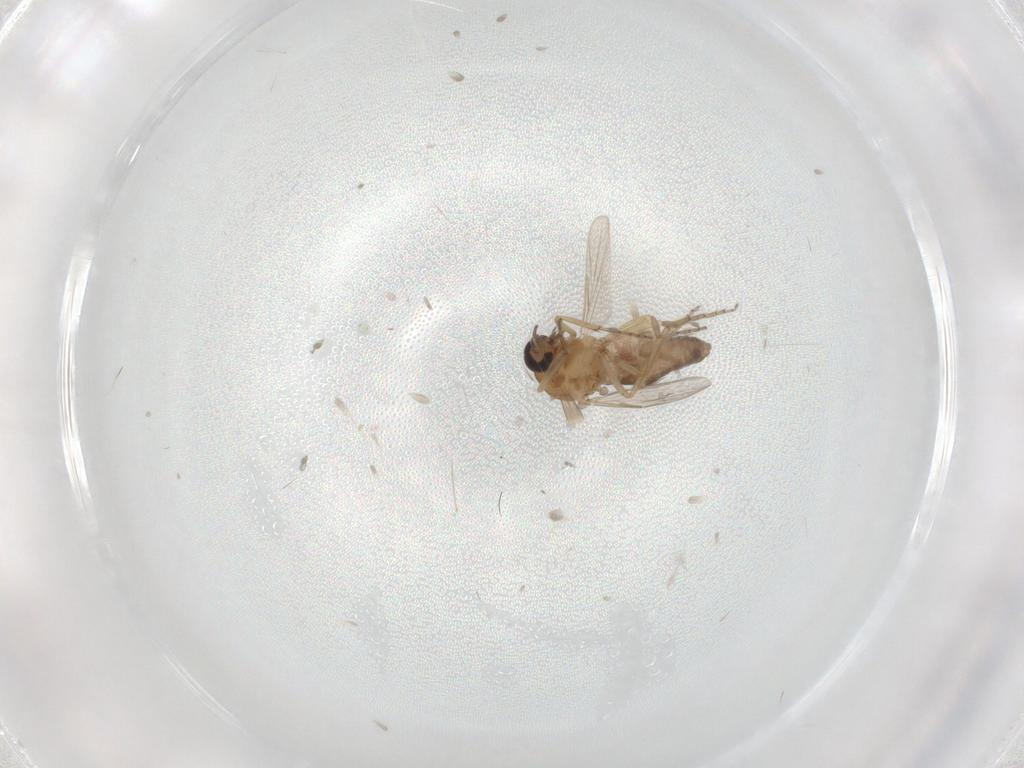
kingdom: Animalia
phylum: Arthropoda
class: Insecta
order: Diptera
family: Ceratopogonidae
